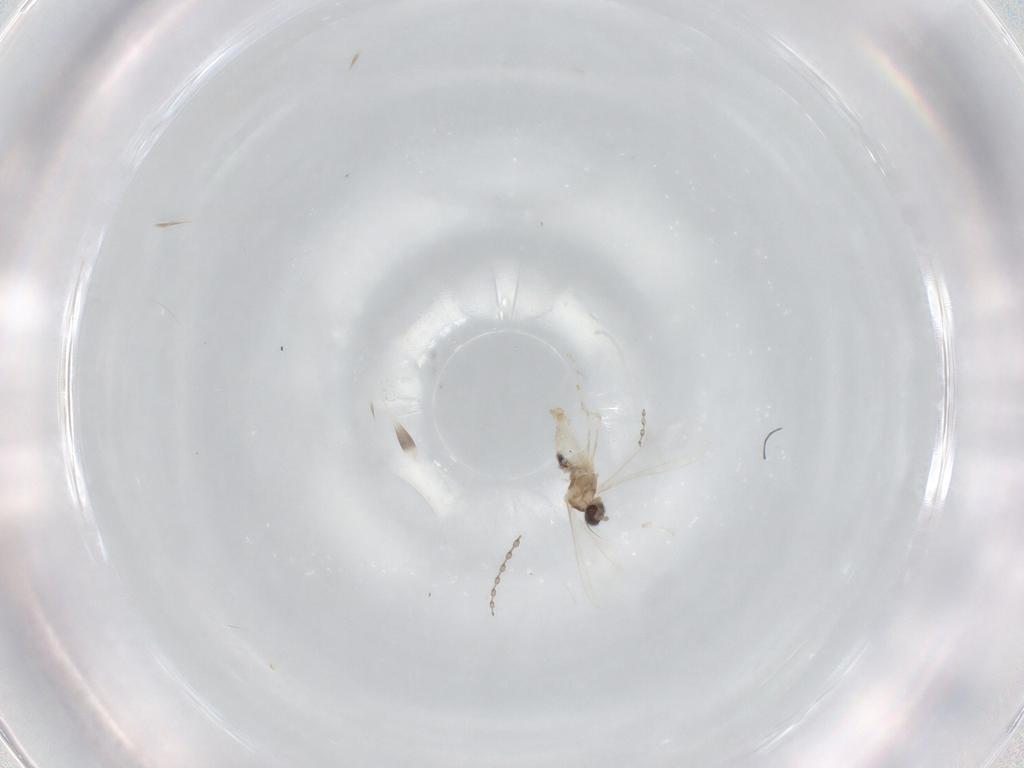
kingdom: Animalia
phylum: Arthropoda
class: Insecta
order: Diptera
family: Cecidomyiidae
